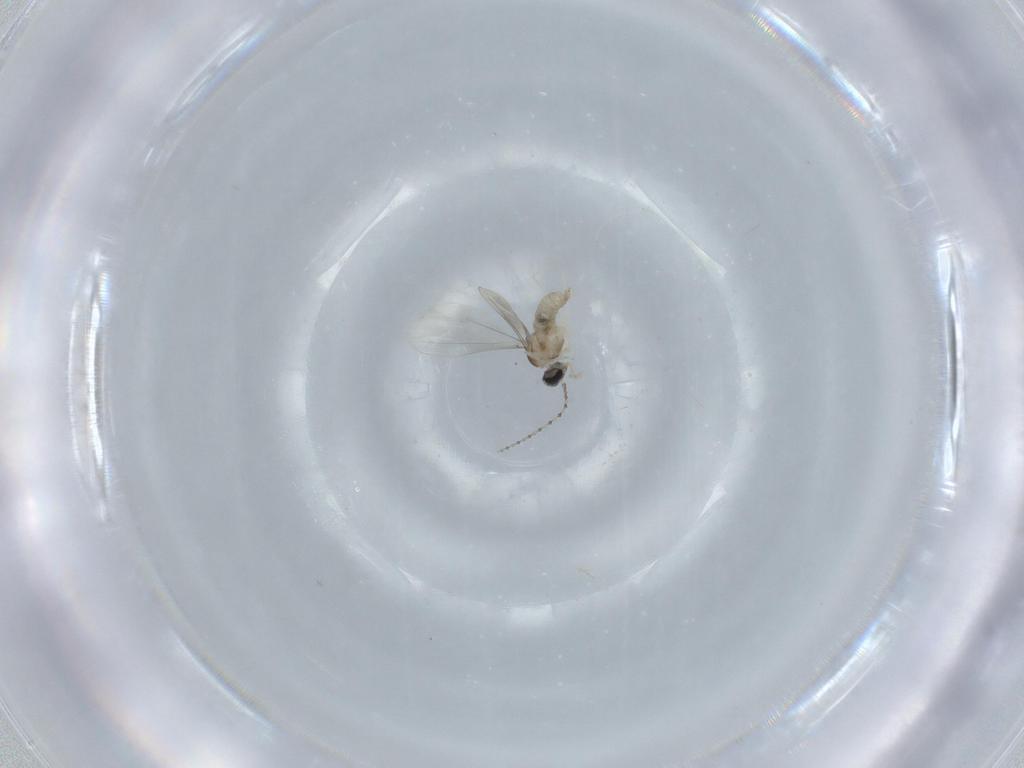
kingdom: Animalia
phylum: Arthropoda
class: Insecta
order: Diptera
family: Cecidomyiidae
